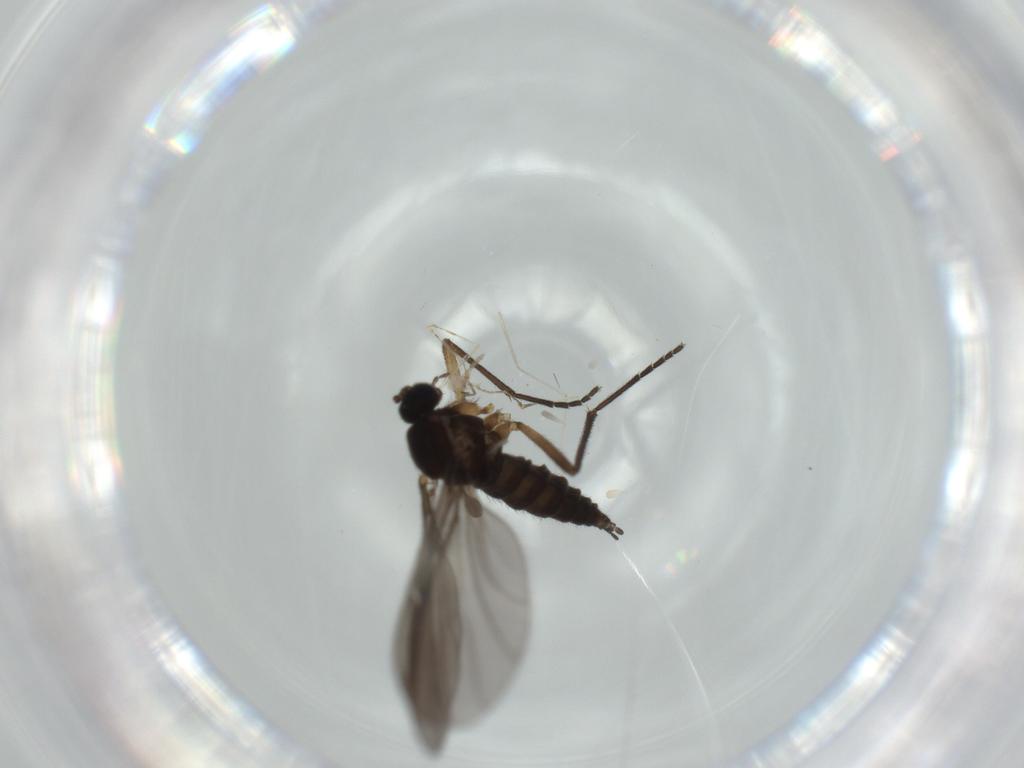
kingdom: Animalia
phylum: Arthropoda
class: Insecta
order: Diptera
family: Sciaridae
